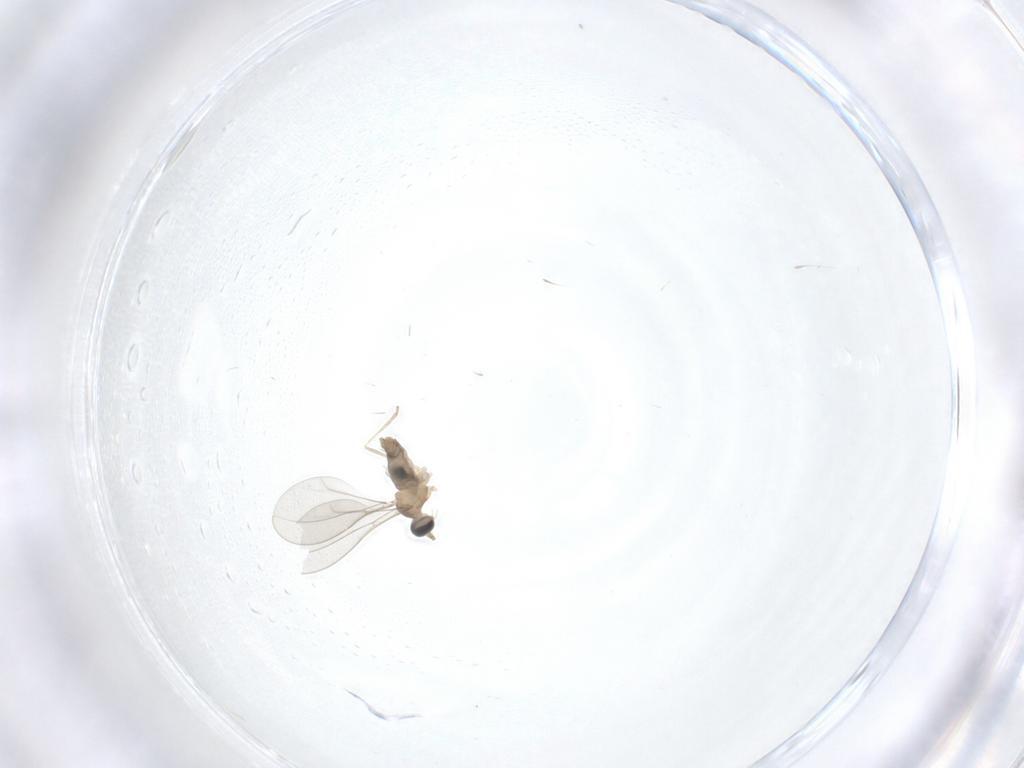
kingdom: Animalia
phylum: Arthropoda
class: Insecta
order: Diptera
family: Cecidomyiidae
